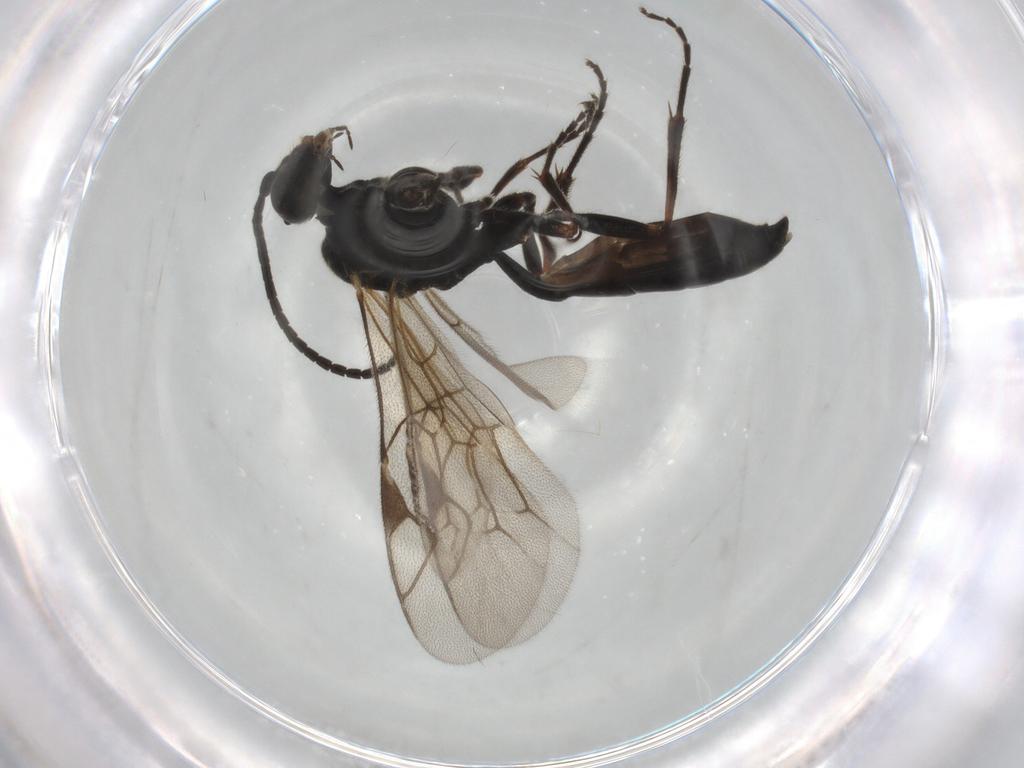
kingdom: Animalia
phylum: Arthropoda
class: Insecta
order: Hymenoptera
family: Ichneumonidae
